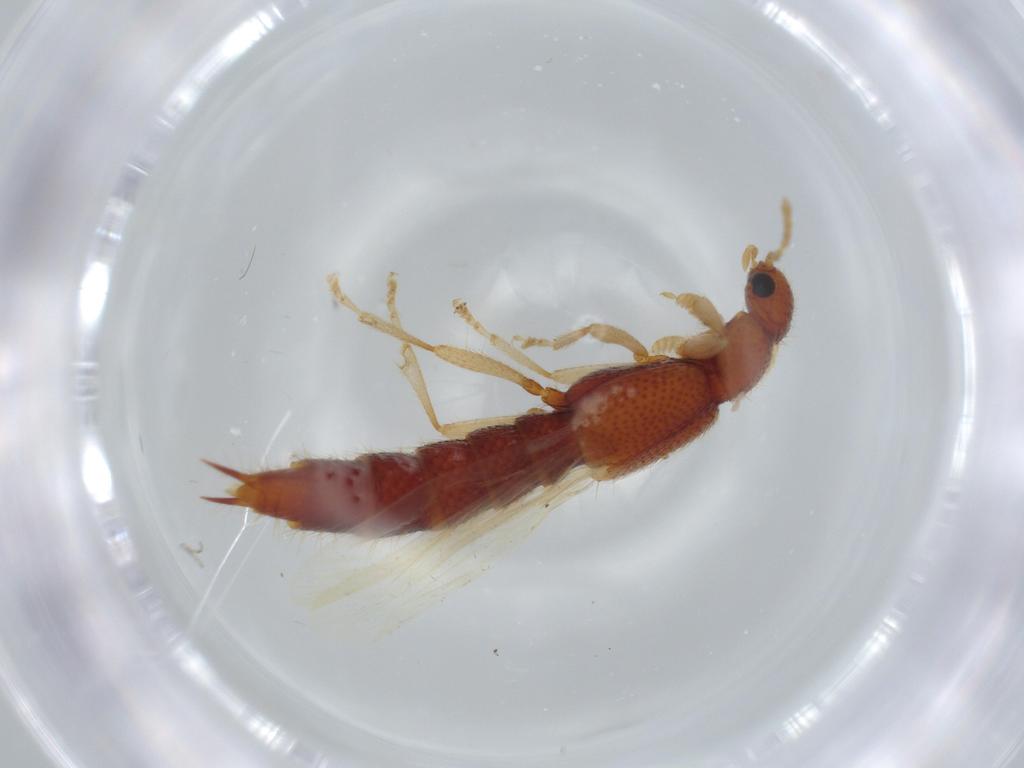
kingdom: Animalia
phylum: Arthropoda
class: Insecta
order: Coleoptera
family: Staphylinidae
